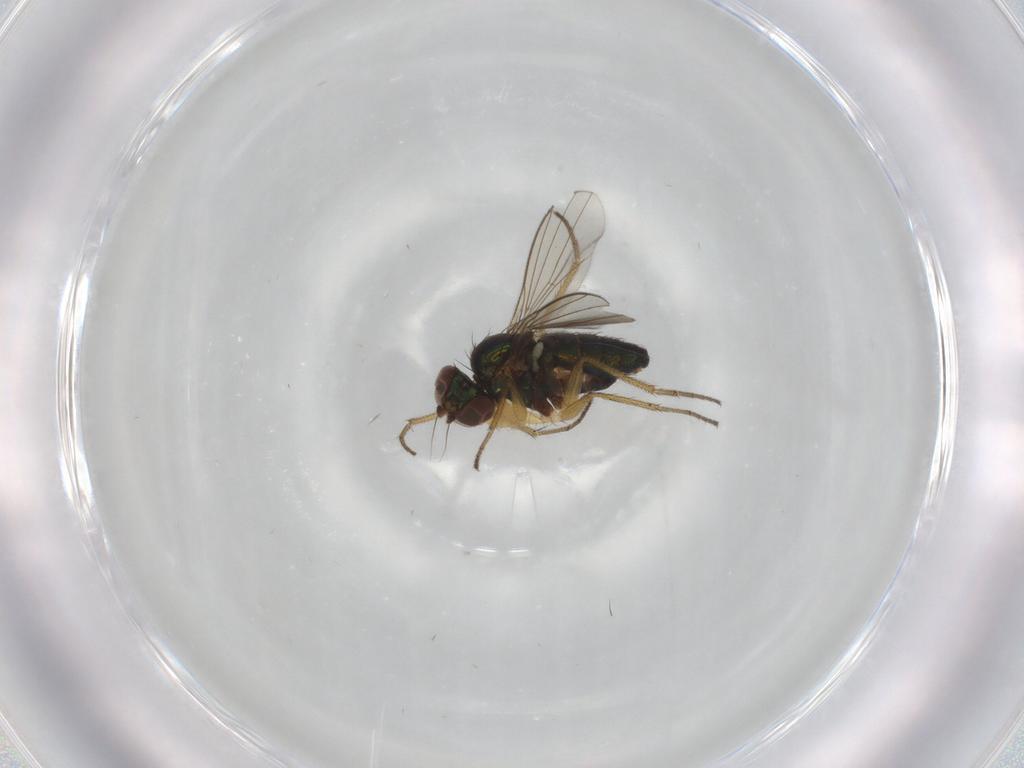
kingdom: Animalia
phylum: Arthropoda
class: Insecta
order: Diptera
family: Dolichopodidae
